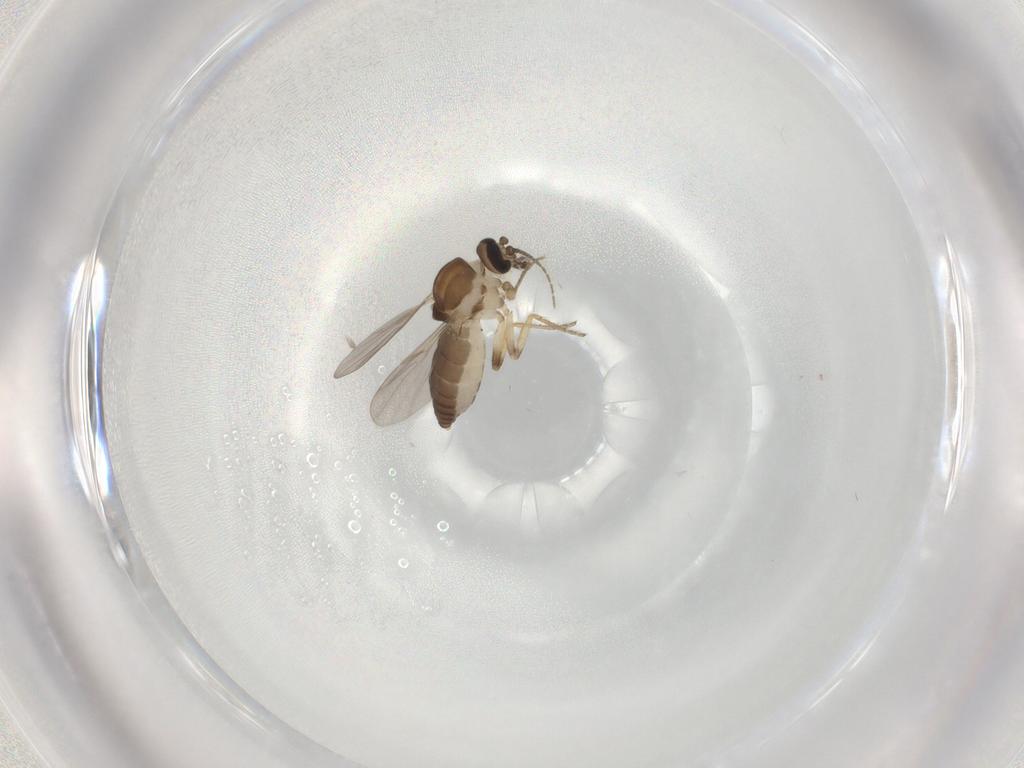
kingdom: Animalia
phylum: Arthropoda
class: Insecta
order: Diptera
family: Ceratopogonidae
